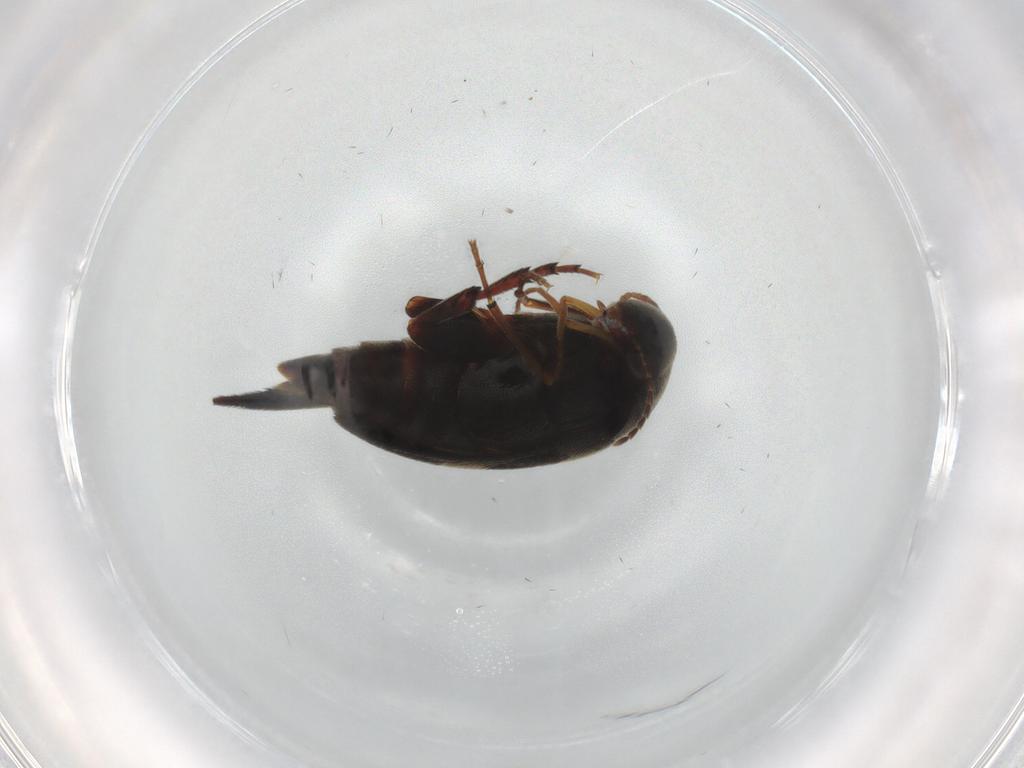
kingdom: Animalia
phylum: Arthropoda
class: Insecta
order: Coleoptera
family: Mordellidae
